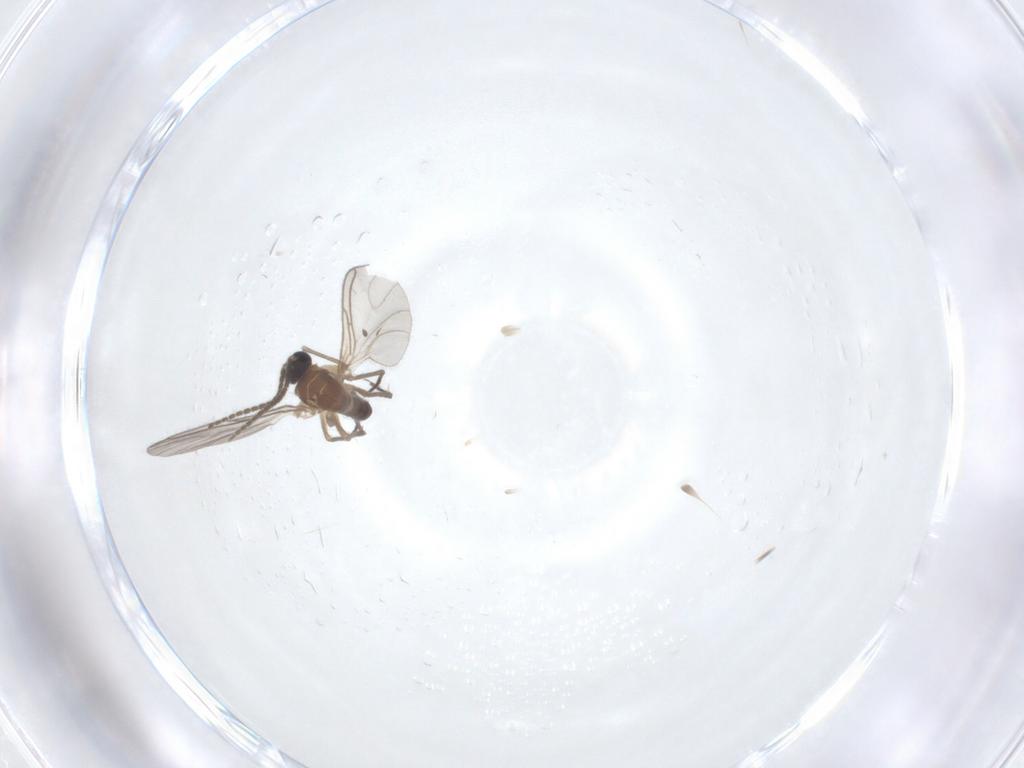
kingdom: Animalia
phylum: Arthropoda
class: Insecta
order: Diptera
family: Sciaridae
